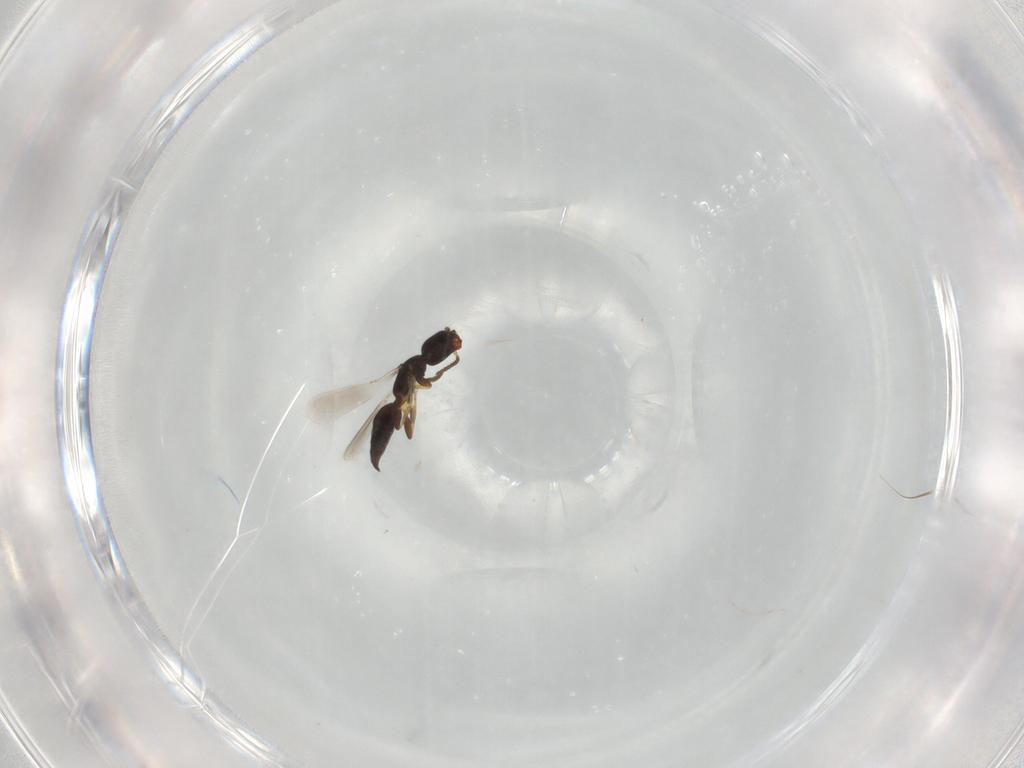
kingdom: Animalia
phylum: Arthropoda
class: Insecta
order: Hymenoptera
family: Bethylidae
